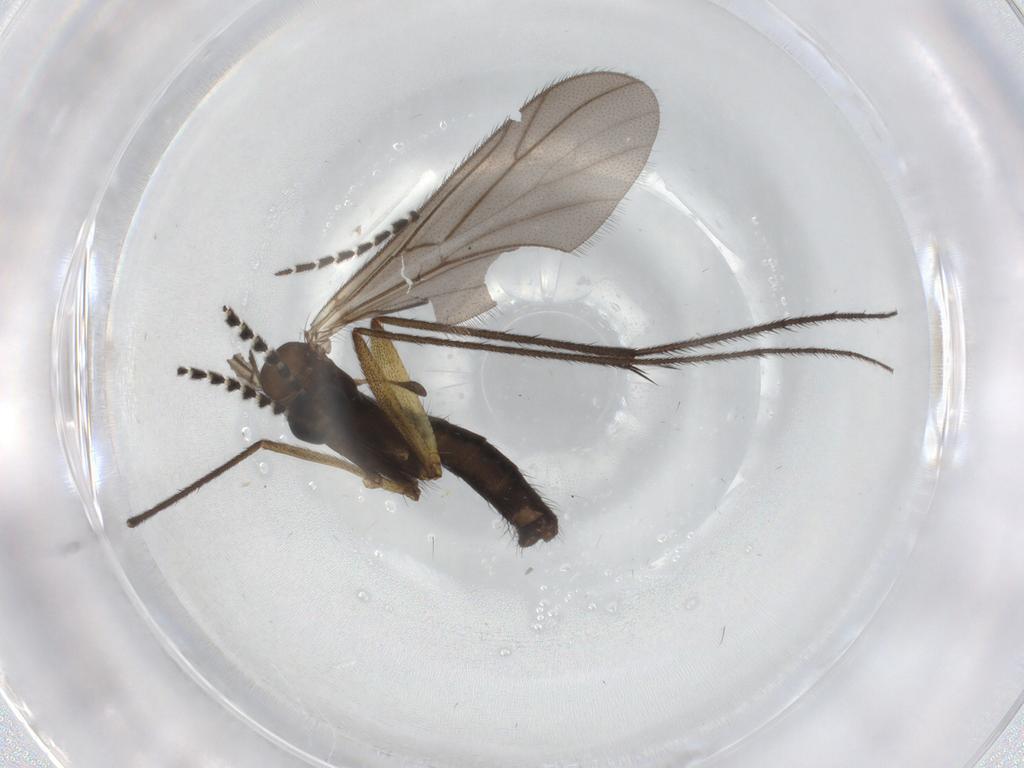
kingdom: Animalia
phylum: Arthropoda
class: Insecta
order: Diptera
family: Phoridae
